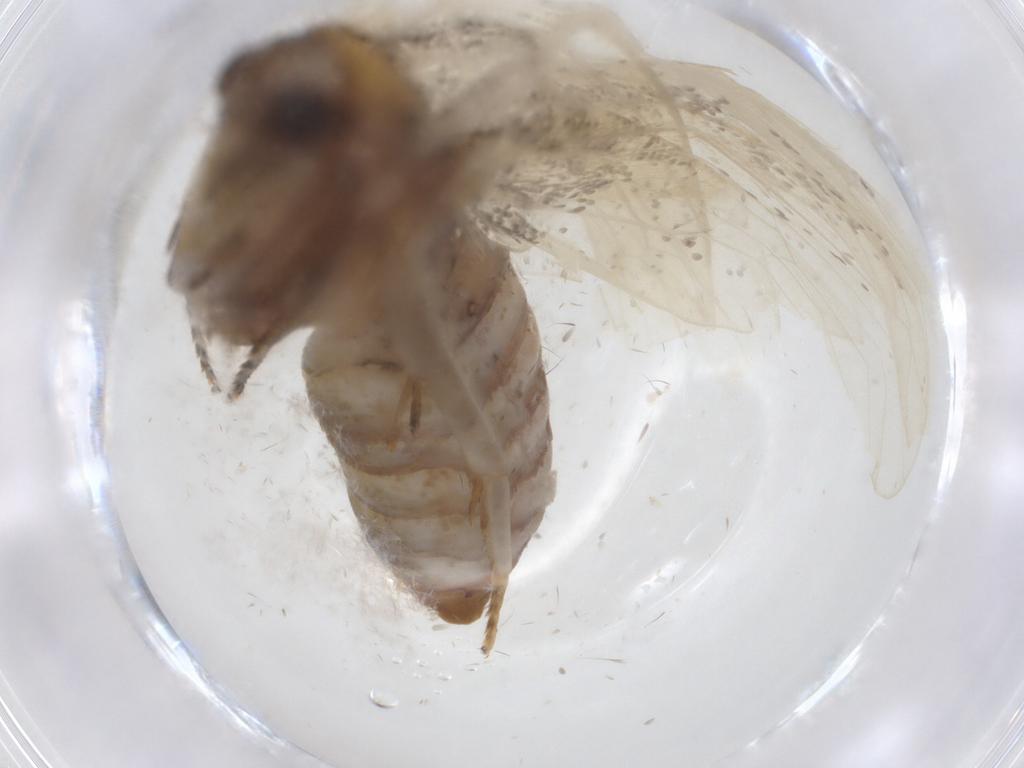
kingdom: Animalia
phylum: Arthropoda
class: Insecta
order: Lepidoptera
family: Tineidae
